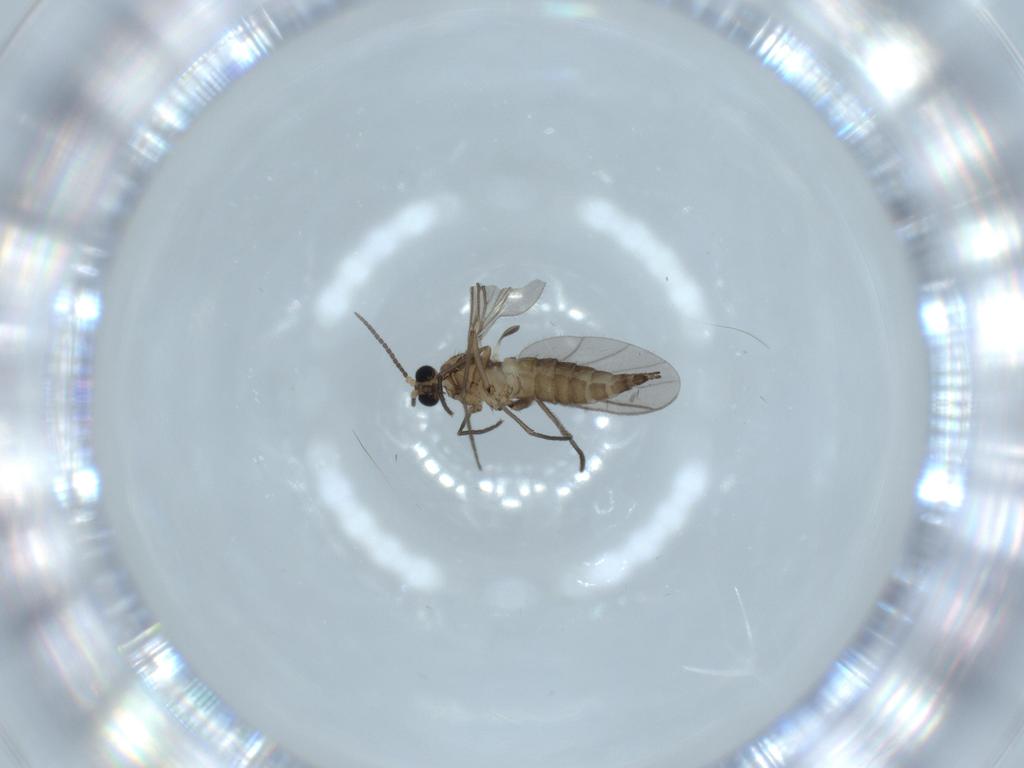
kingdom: Animalia
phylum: Arthropoda
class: Insecta
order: Diptera
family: Sciaridae
